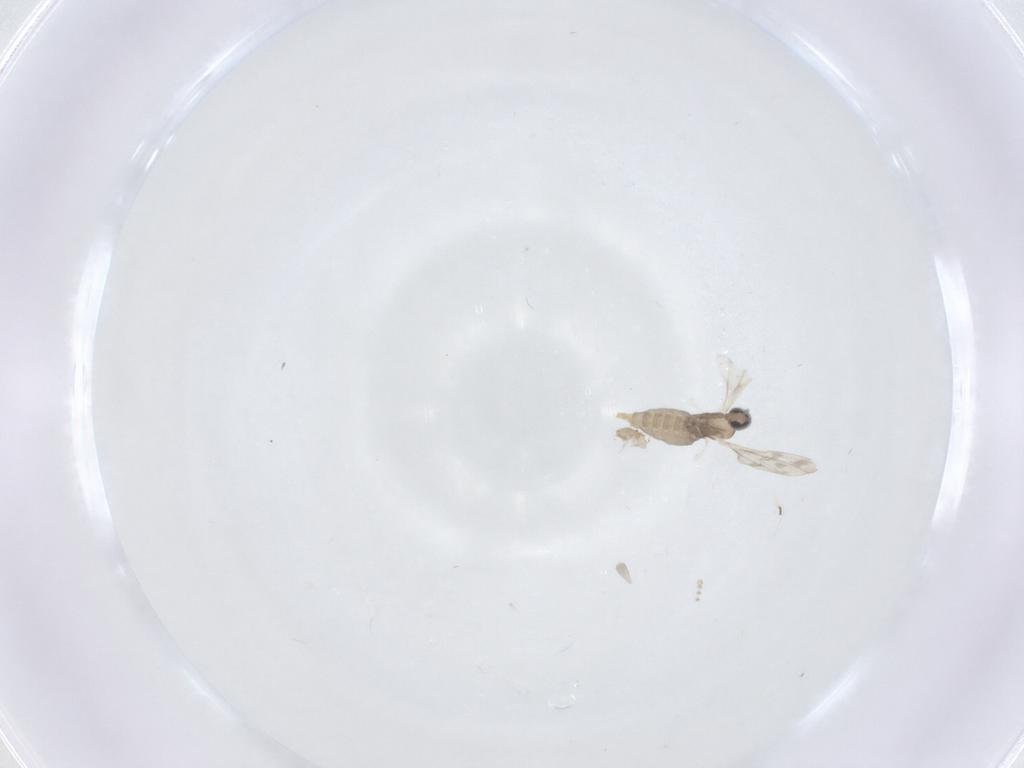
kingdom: Animalia
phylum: Arthropoda
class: Insecta
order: Diptera
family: Psychodidae
